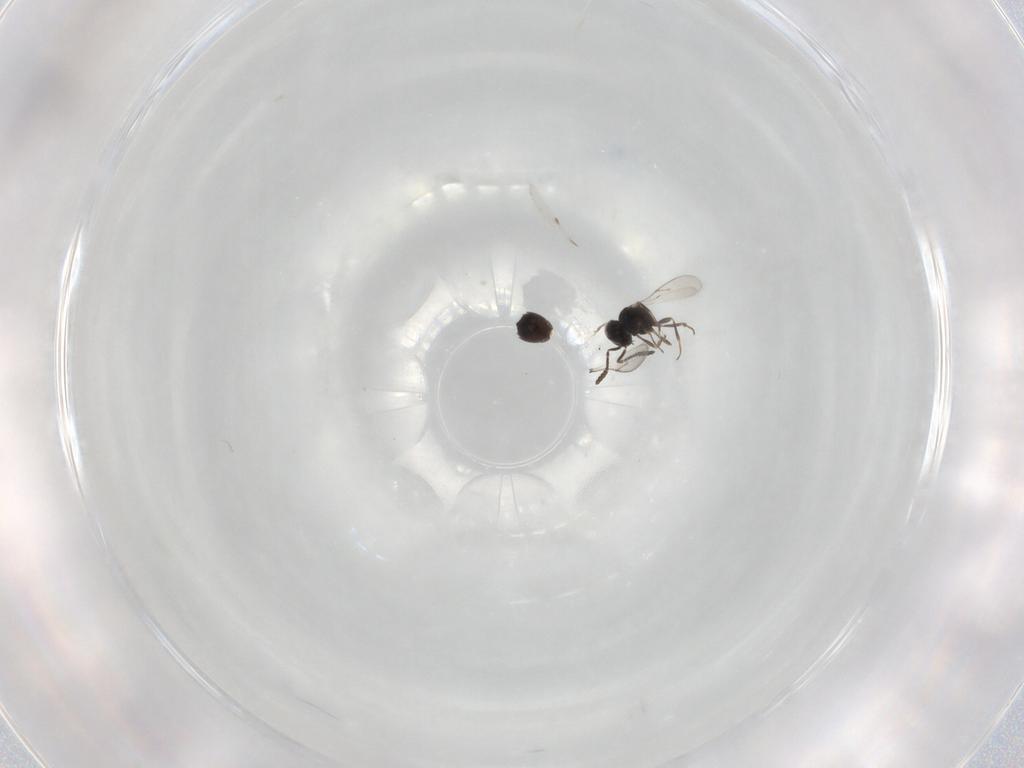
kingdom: Animalia
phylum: Arthropoda
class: Insecta
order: Hymenoptera
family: Scelionidae
